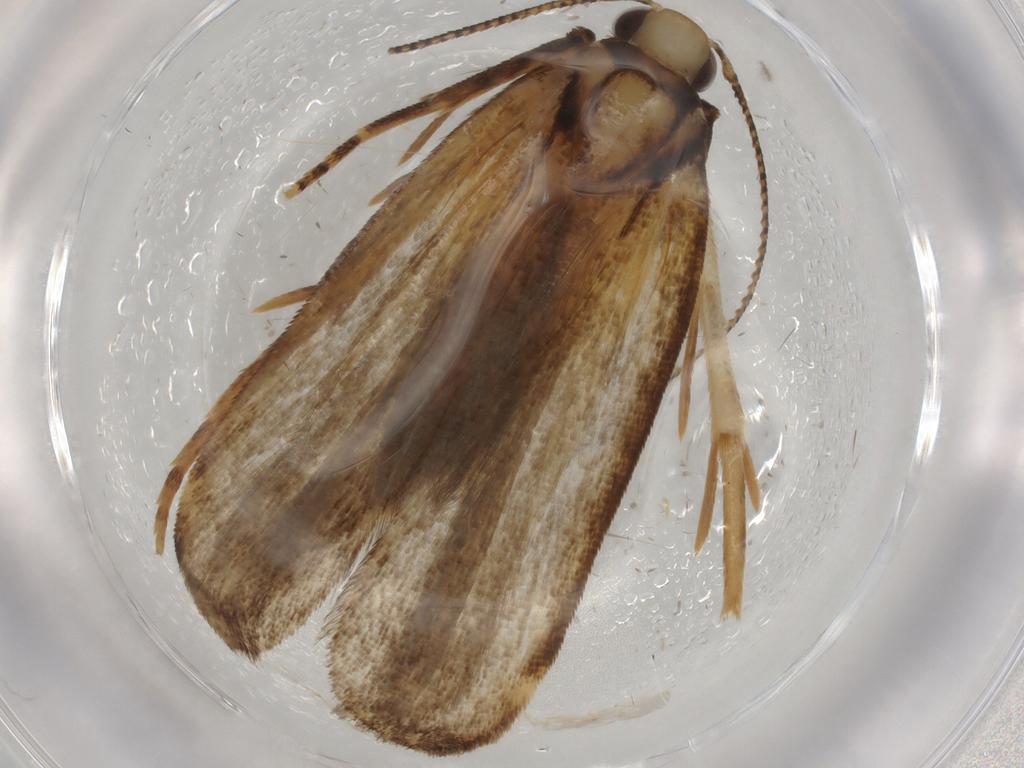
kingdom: Animalia
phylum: Arthropoda
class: Insecta
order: Lepidoptera
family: Gelechiidae
